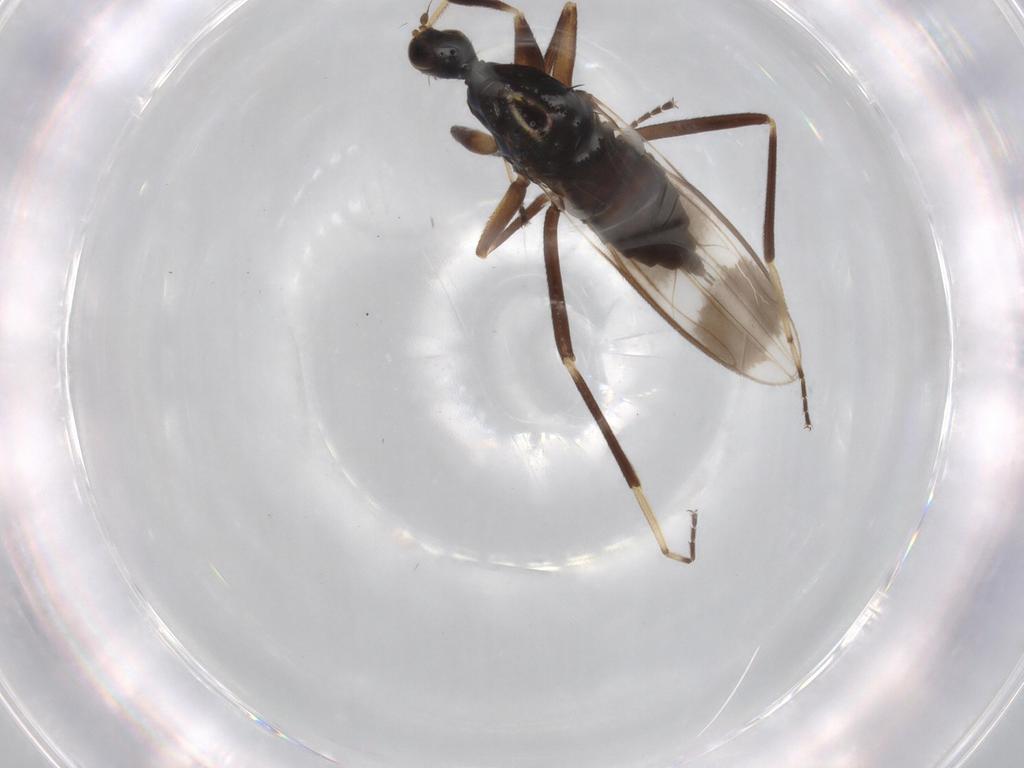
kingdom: Animalia
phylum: Arthropoda
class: Insecta
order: Diptera
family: Hybotidae
